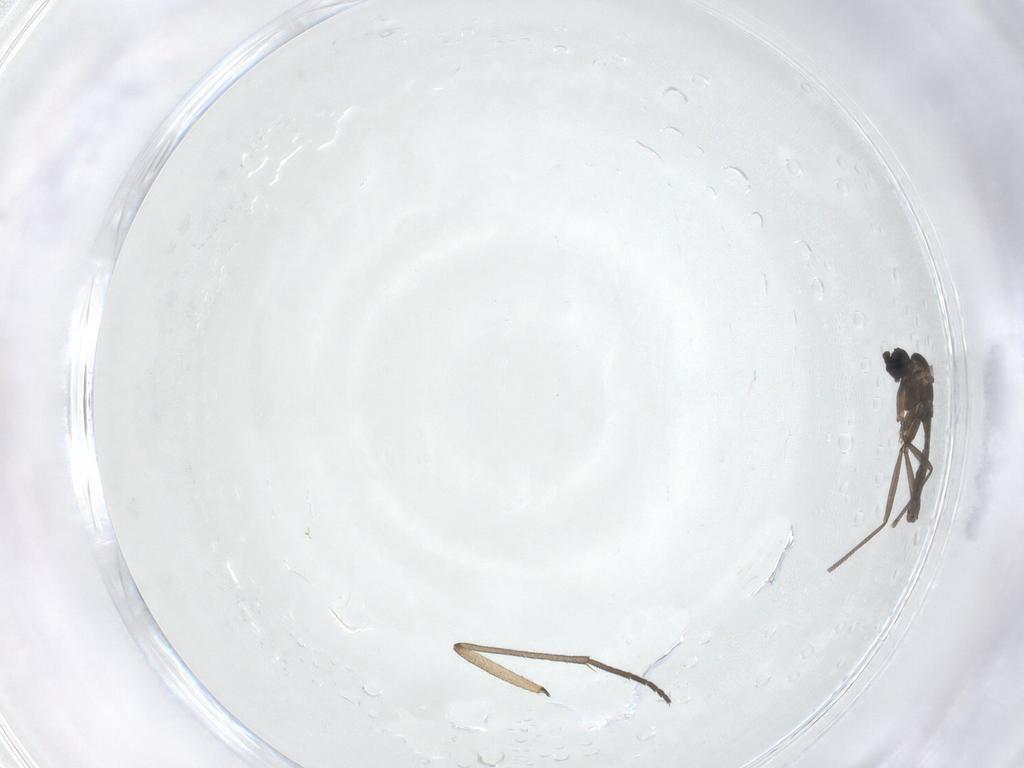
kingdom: Animalia
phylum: Arthropoda
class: Insecta
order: Diptera
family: Sciaridae
